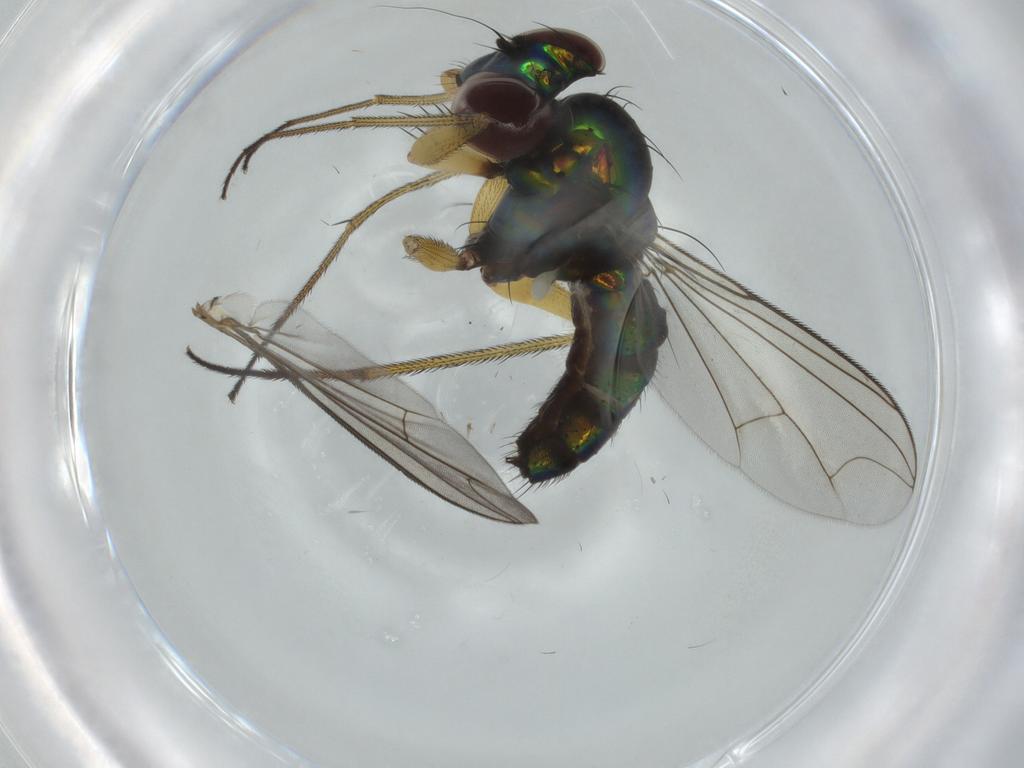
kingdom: Animalia
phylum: Arthropoda
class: Insecta
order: Diptera
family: Dolichopodidae
